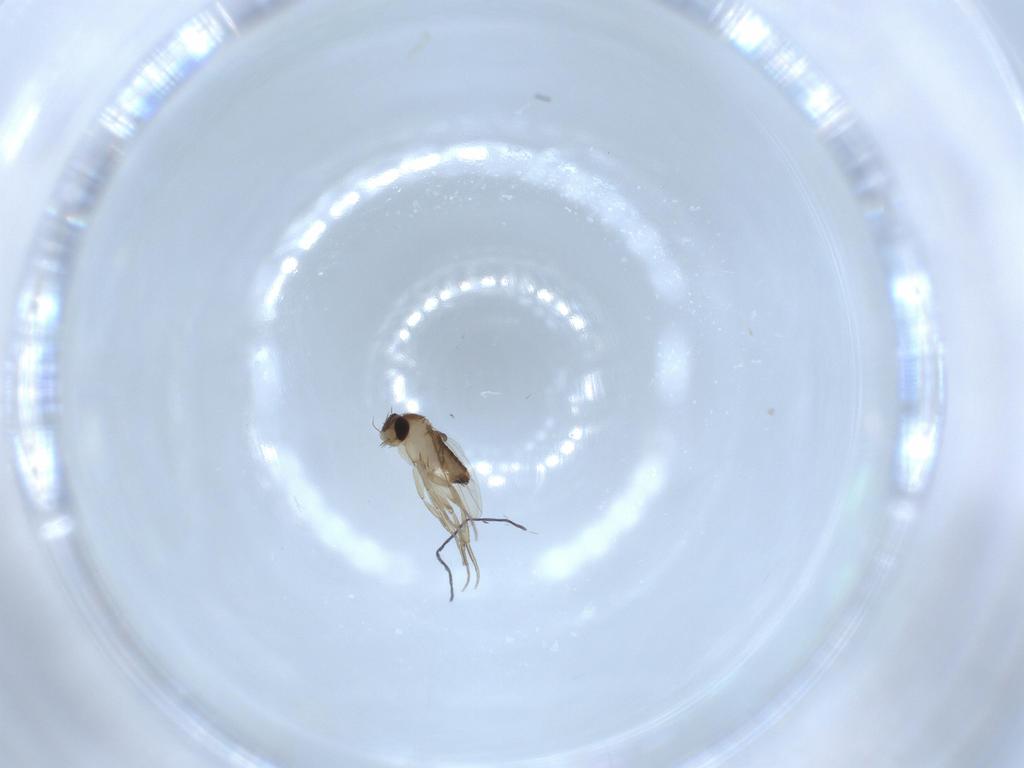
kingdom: Animalia
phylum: Arthropoda
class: Insecta
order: Diptera
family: Phoridae
